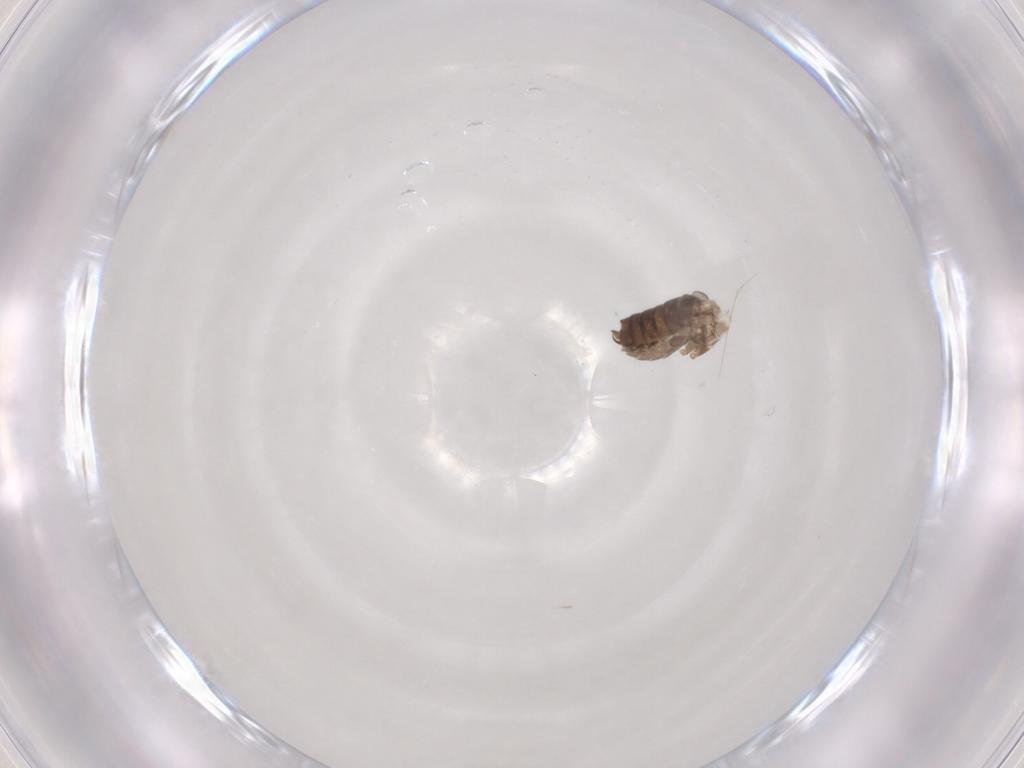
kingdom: Animalia
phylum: Arthropoda
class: Insecta
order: Diptera
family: Psychodidae
